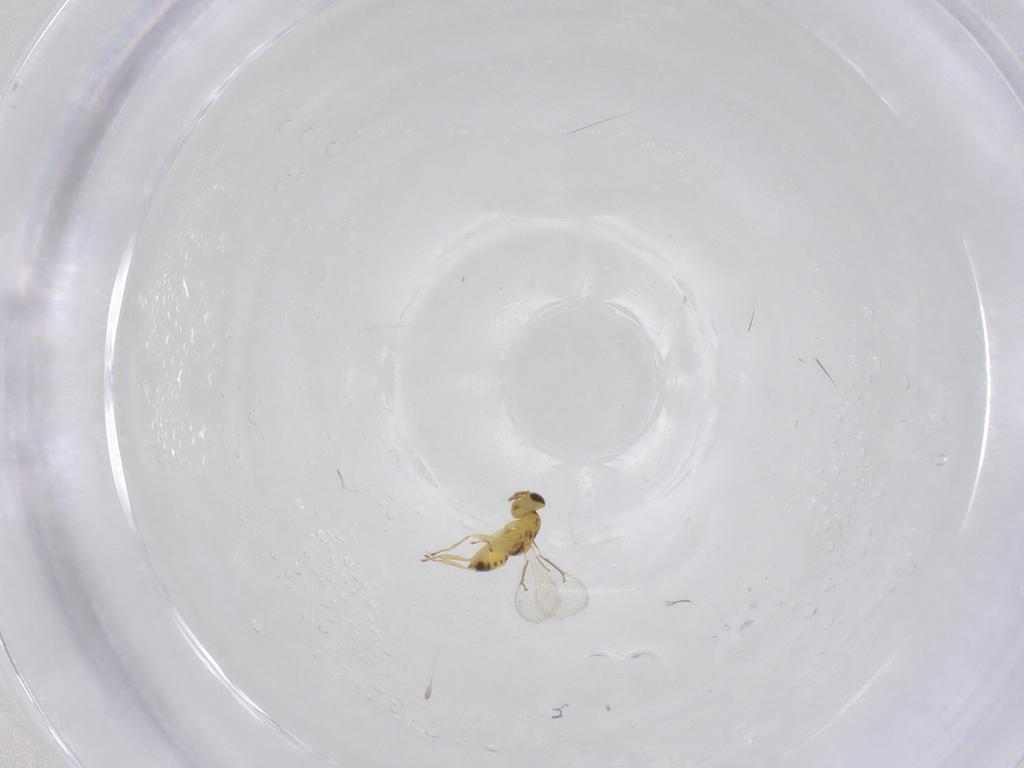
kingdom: Animalia
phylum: Arthropoda
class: Insecta
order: Hymenoptera
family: Eulophidae
